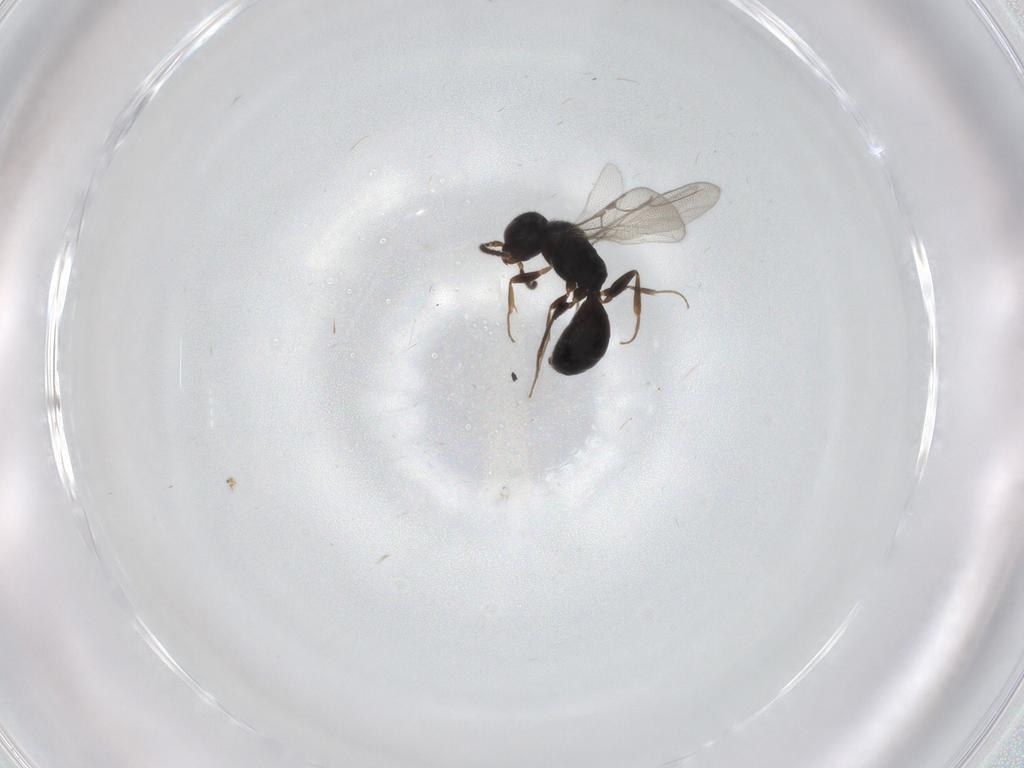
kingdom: Animalia
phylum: Arthropoda
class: Insecta
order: Hymenoptera
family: Bethylidae
